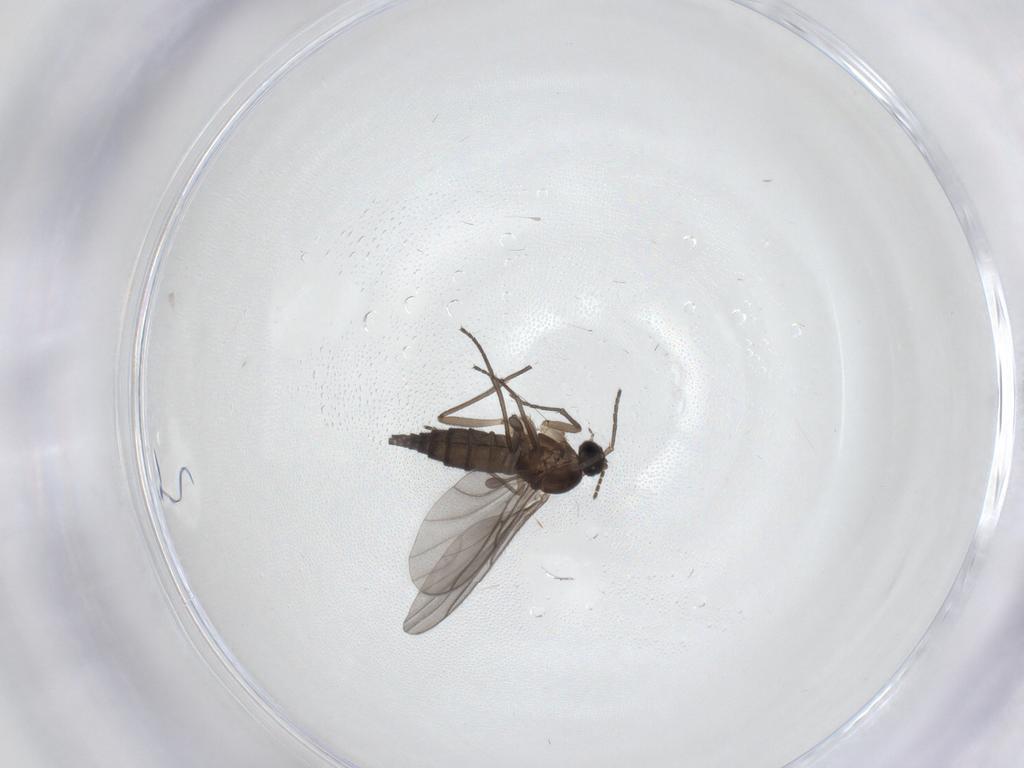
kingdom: Animalia
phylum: Arthropoda
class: Insecta
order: Diptera
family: Sciaridae
